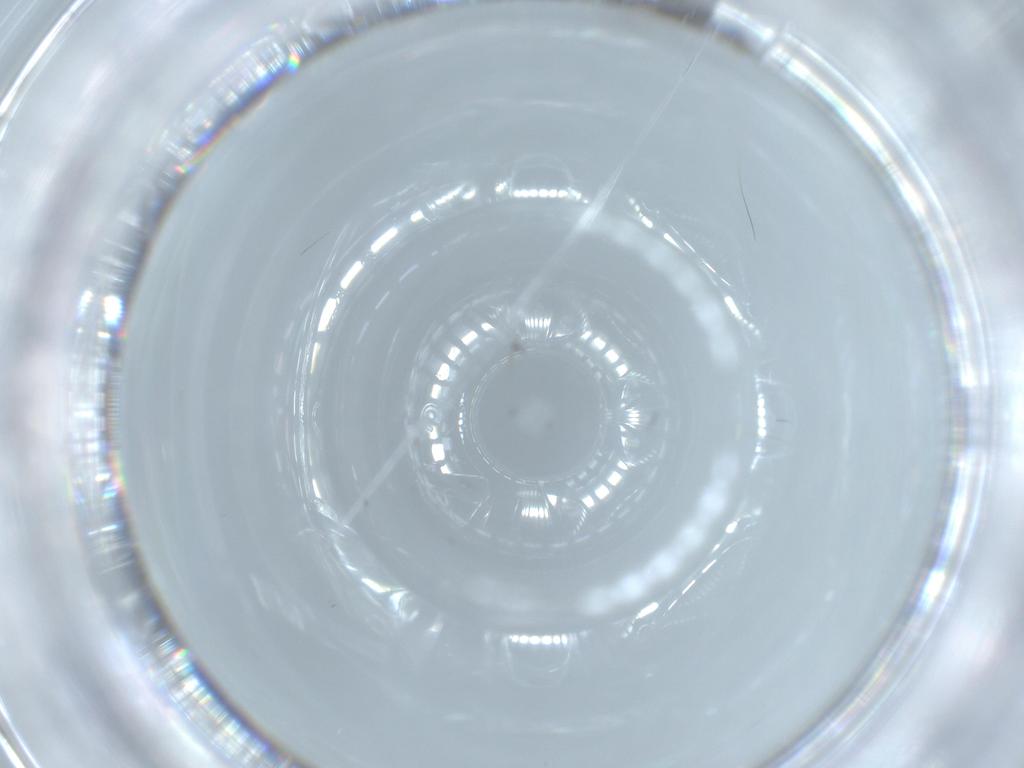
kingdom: Animalia
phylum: Arthropoda
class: Insecta
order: Diptera
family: Chironomidae
